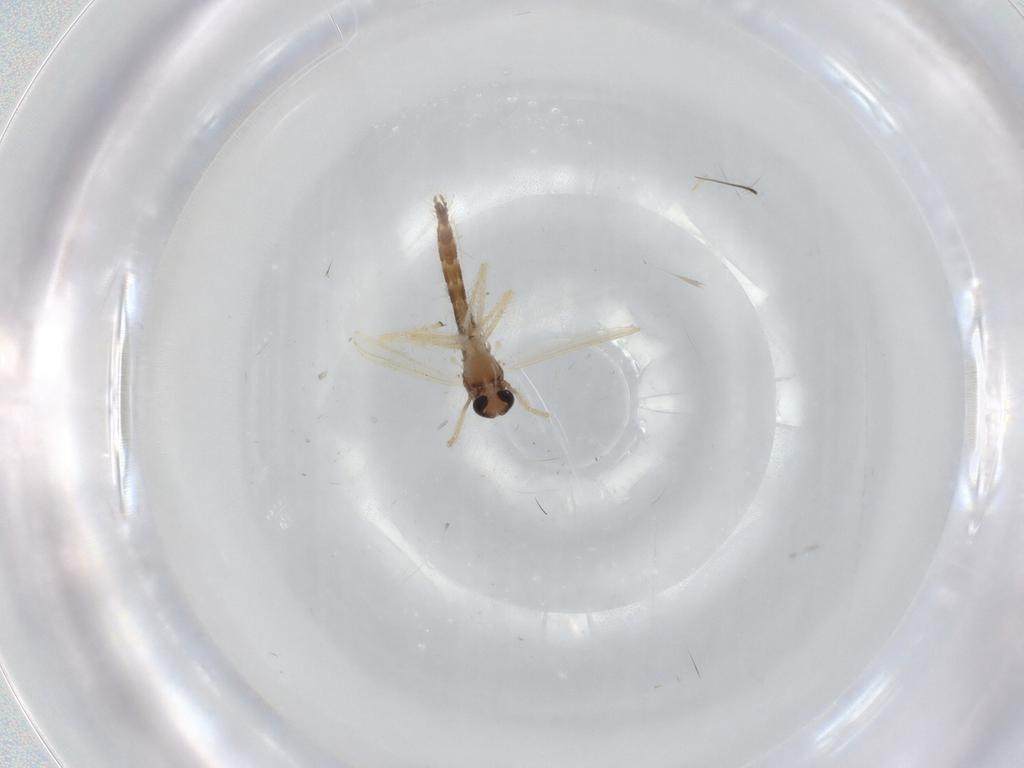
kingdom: Animalia
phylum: Arthropoda
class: Insecta
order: Diptera
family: Chironomidae
